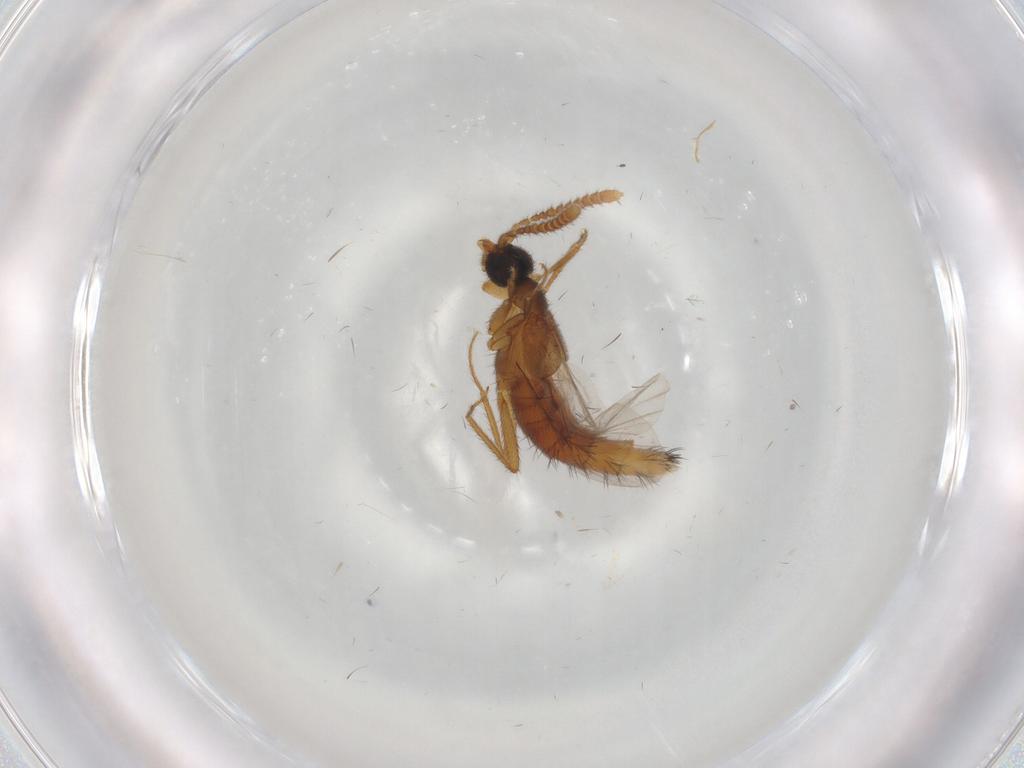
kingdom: Animalia
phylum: Arthropoda
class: Insecta
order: Coleoptera
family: Staphylinidae
